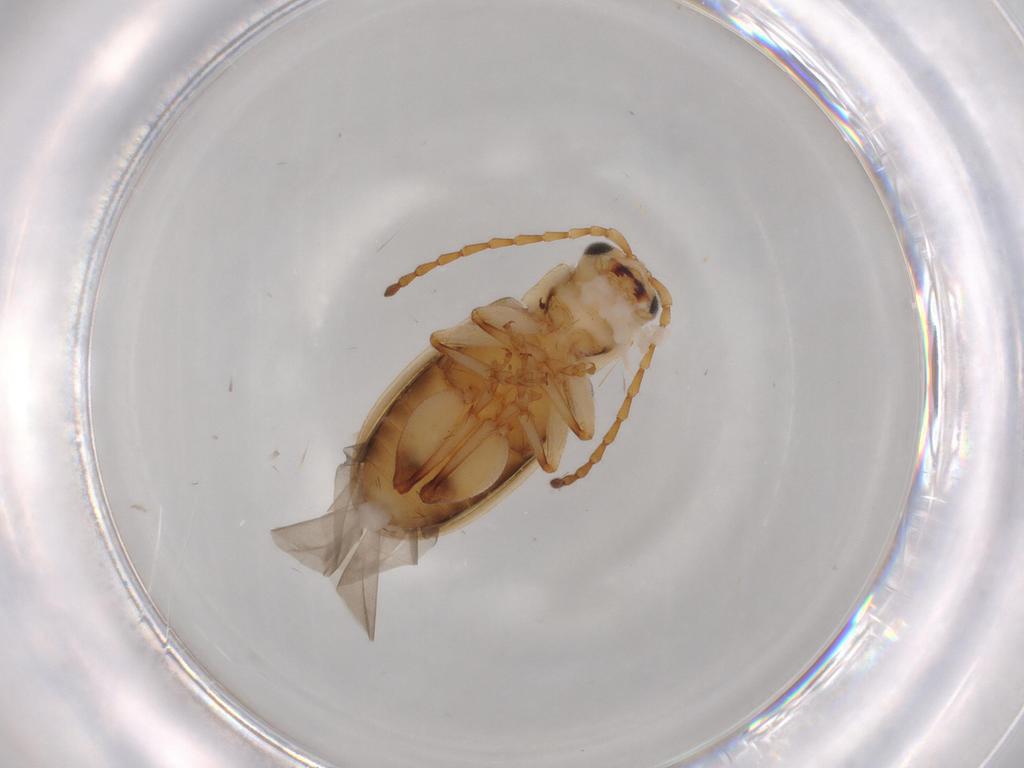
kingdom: Animalia
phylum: Arthropoda
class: Insecta
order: Coleoptera
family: Chrysomelidae
